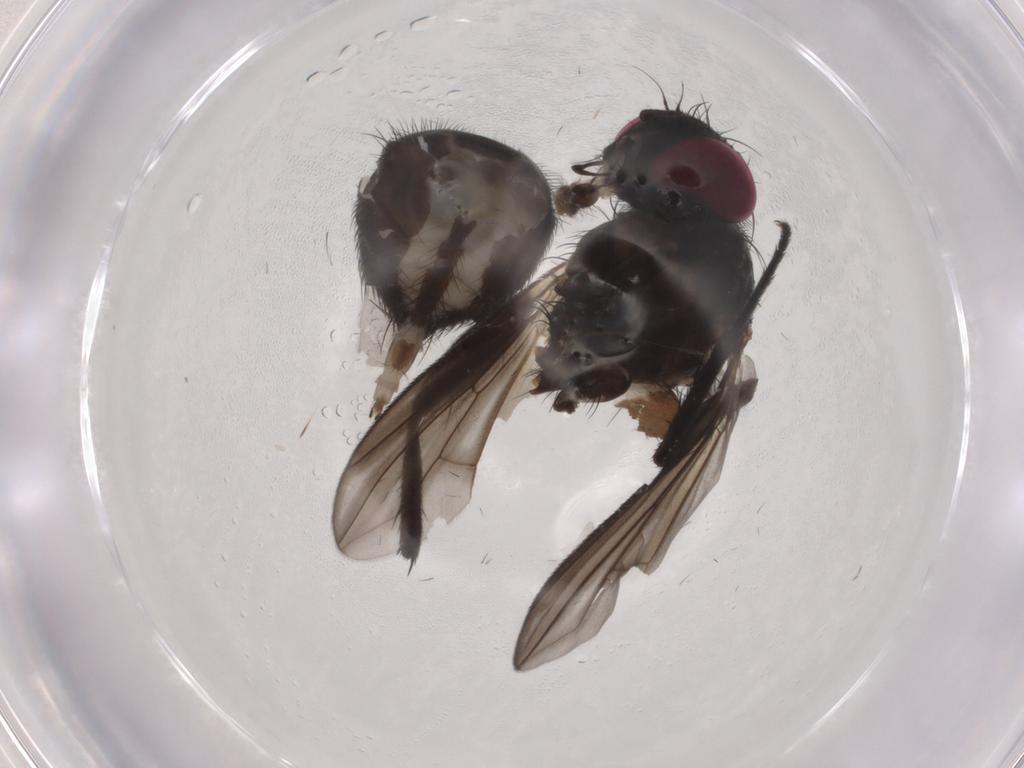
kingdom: Animalia
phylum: Arthropoda
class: Insecta
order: Diptera
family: Calliphoridae
